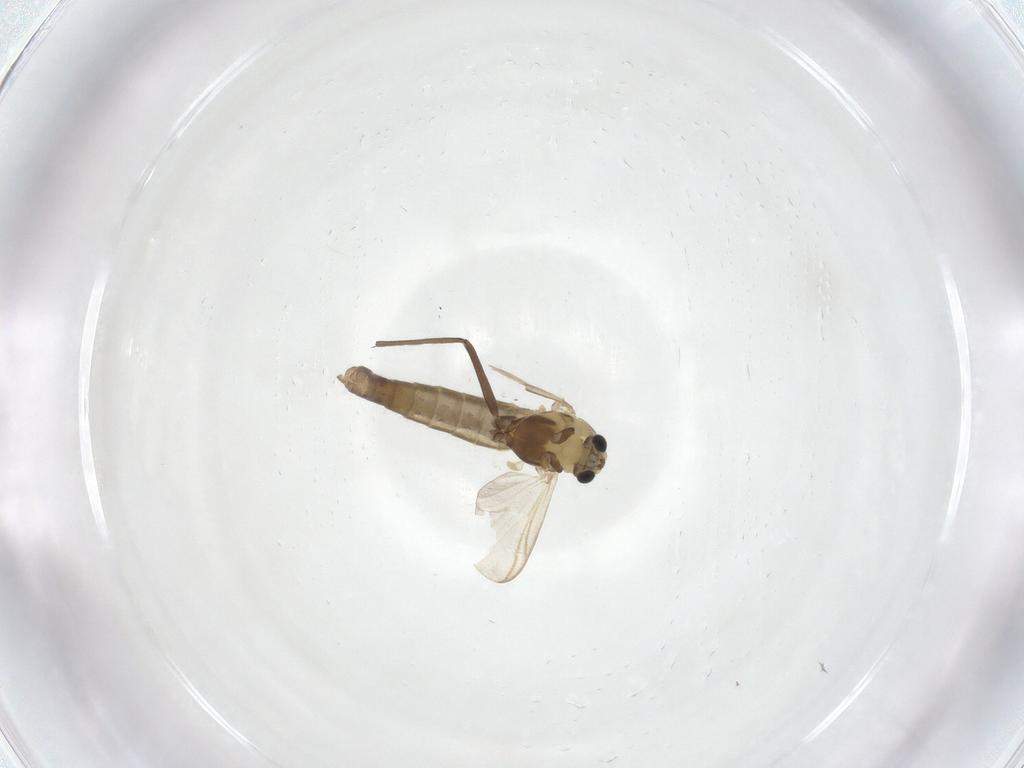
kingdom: Animalia
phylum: Arthropoda
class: Insecta
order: Diptera
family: Chironomidae
